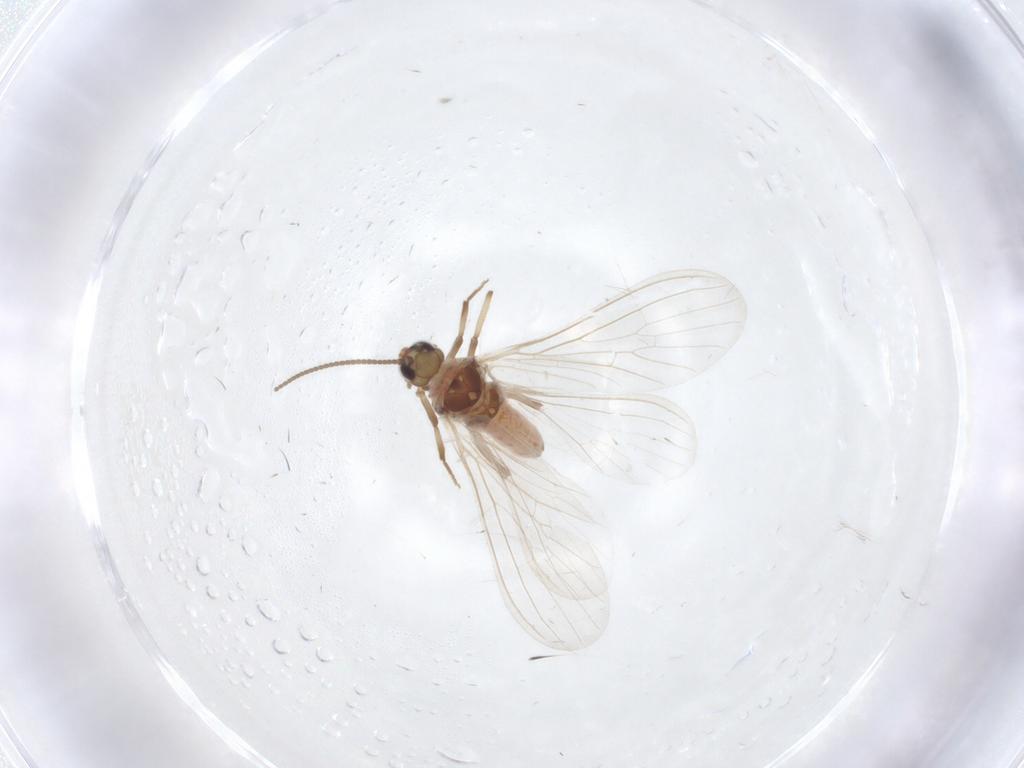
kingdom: Animalia
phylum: Arthropoda
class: Insecta
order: Neuroptera
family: Coniopterygidae
